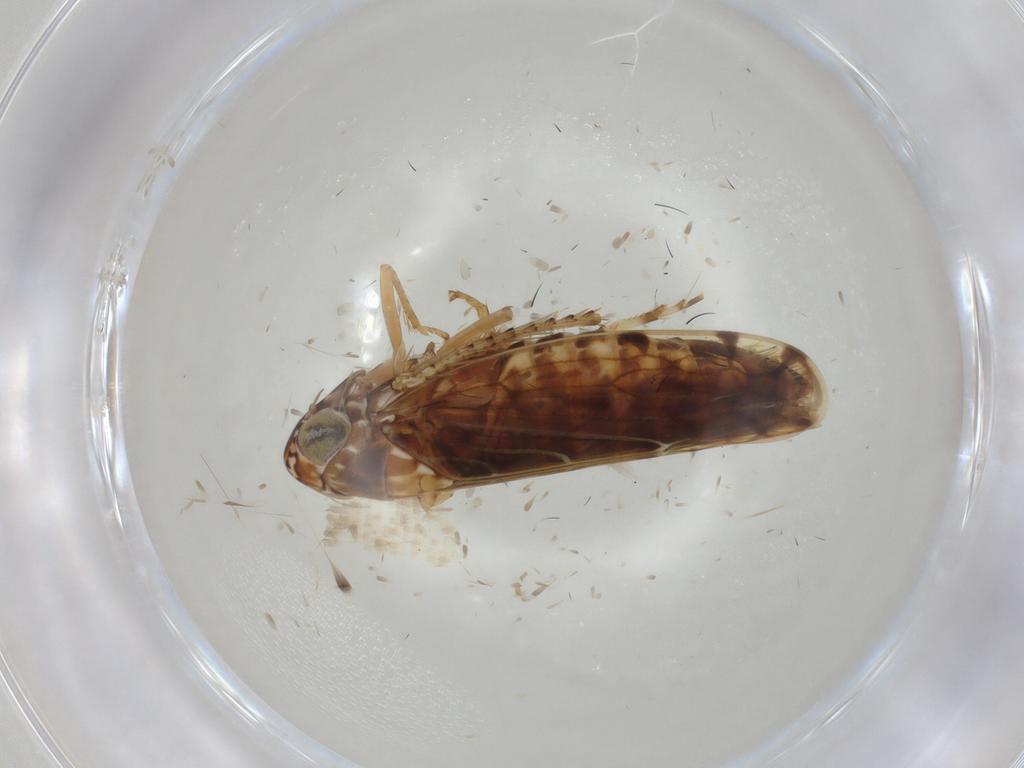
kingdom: Animalia
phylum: Arthropoda
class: Insecta
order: Hemiptera
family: Cicadellidae
